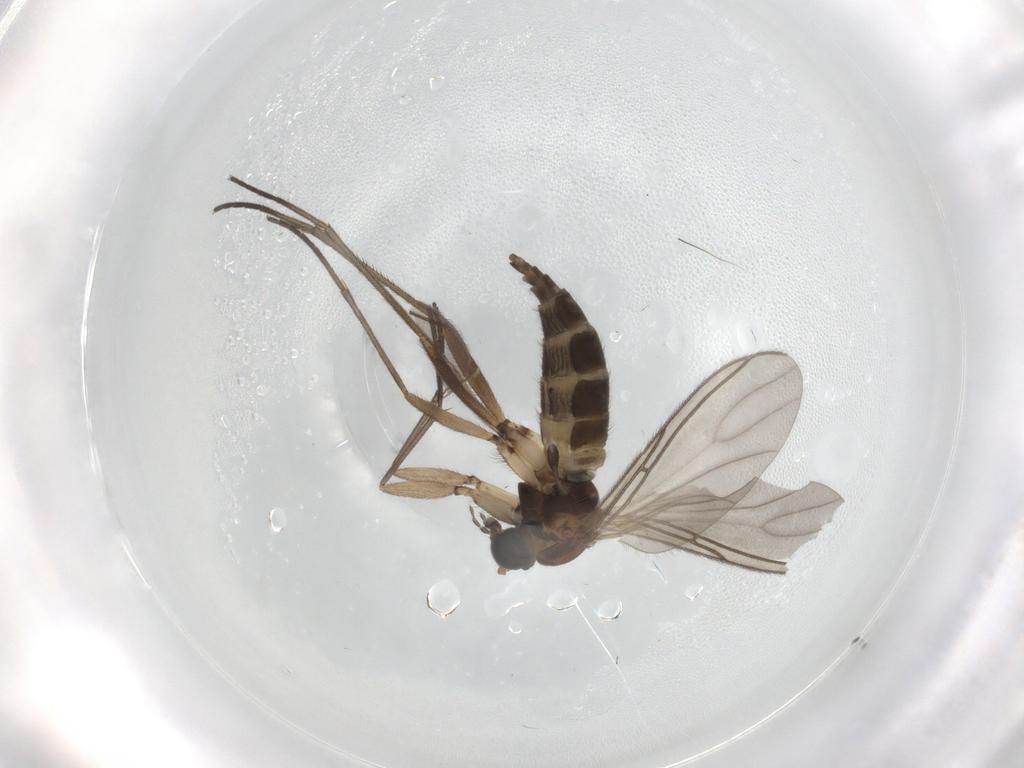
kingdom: Animalia
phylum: Arthropoda
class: Insecta
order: Diptera
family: Sciaridae
